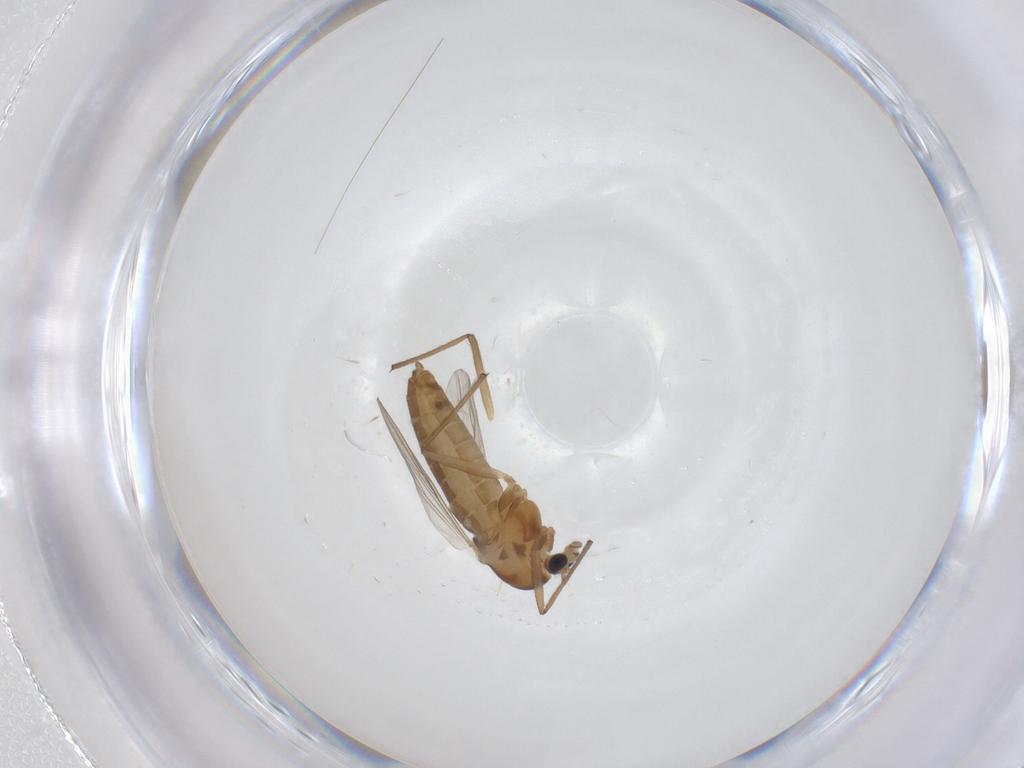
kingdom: Animalia
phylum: Arthropoda
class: Insecta
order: Diptera
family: Chironomidae
